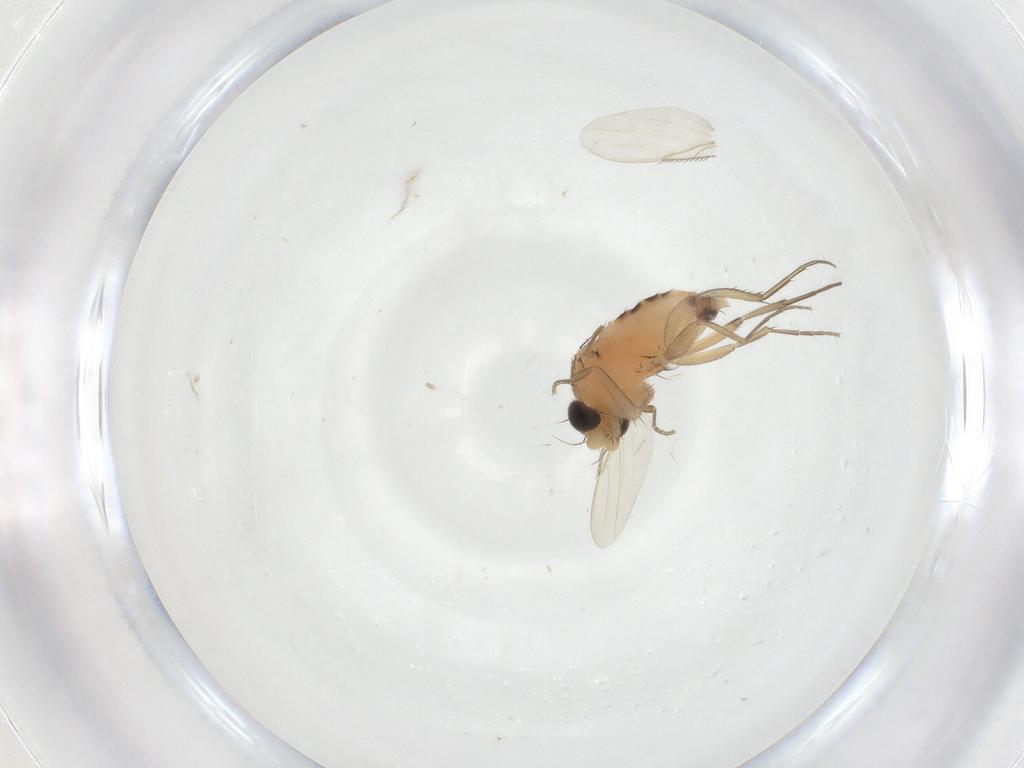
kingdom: Animalia
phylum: Arthropoda
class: Insecta
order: Diptera
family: Phoridae
